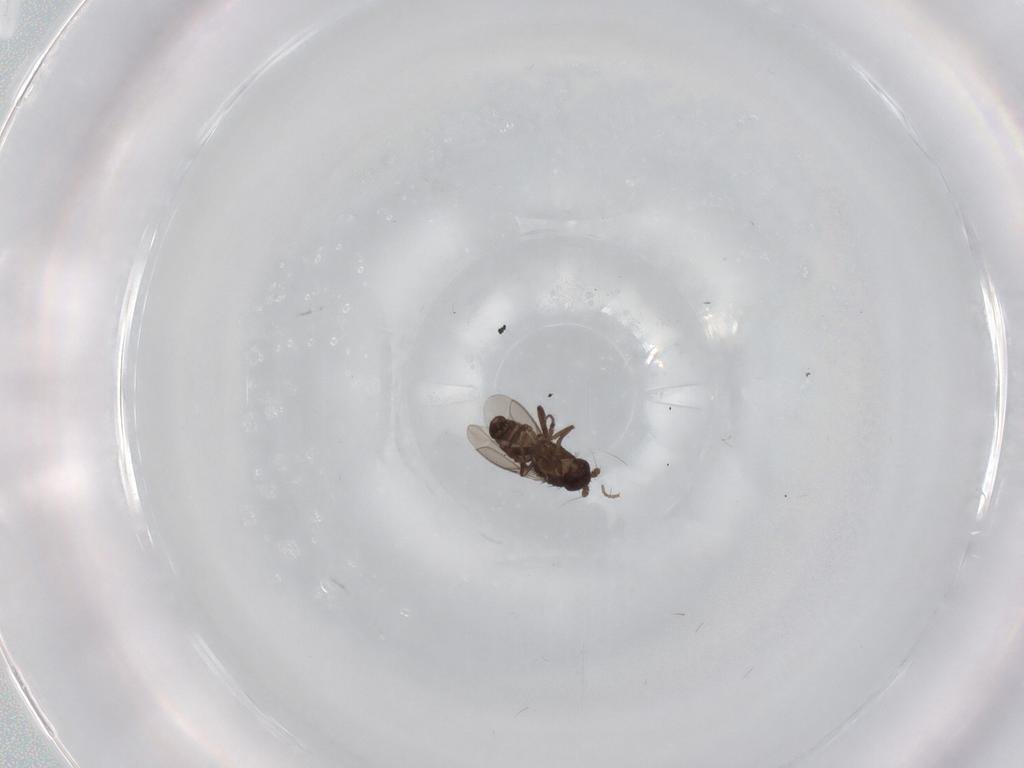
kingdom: Animalia
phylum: Arthropoda
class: Insecta
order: Diptera
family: Sphaeroceridae
